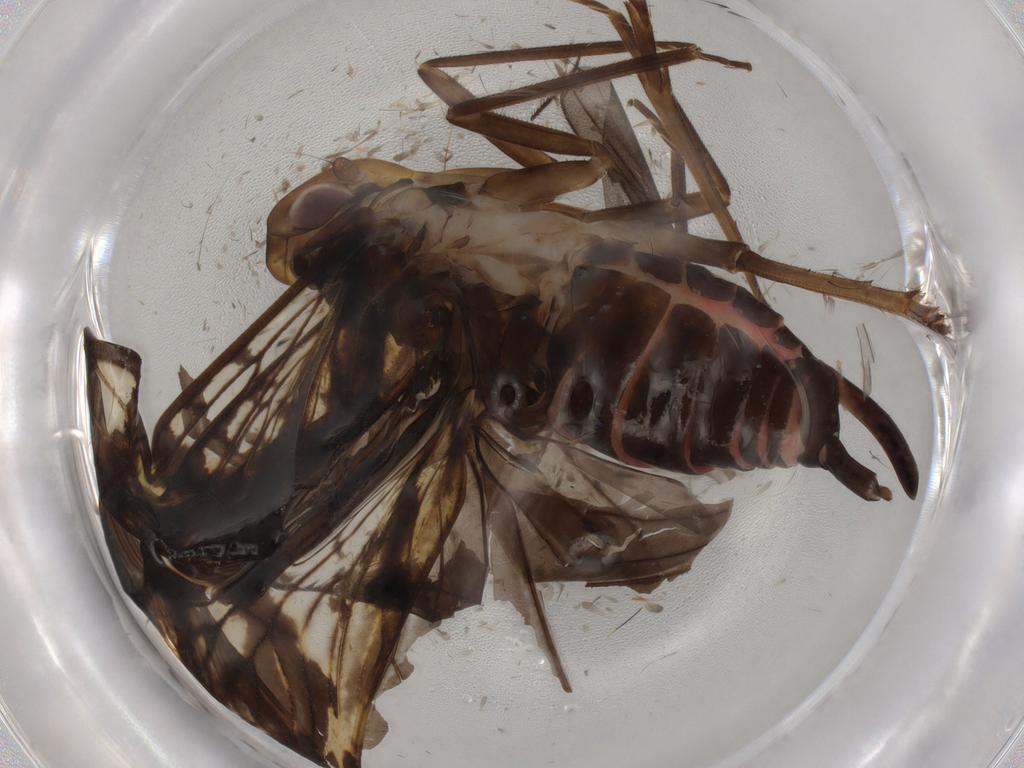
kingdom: Animalia
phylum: Arthropoda
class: Insecta
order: Hemiptera
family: Cixiidae
